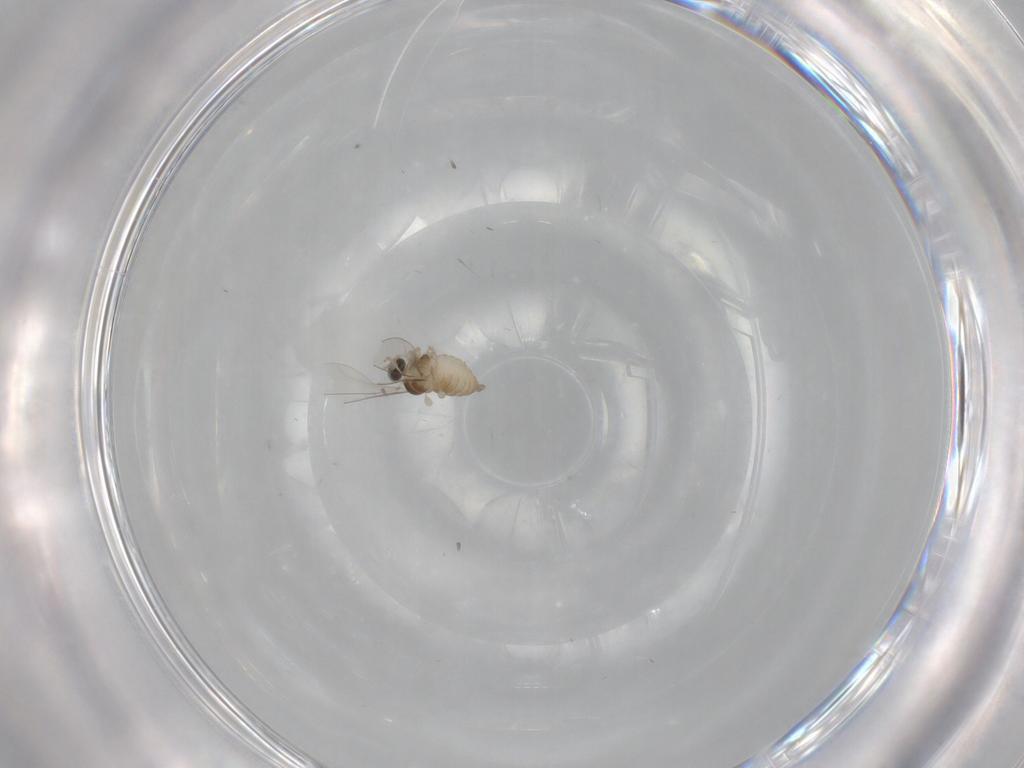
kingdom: Animalia
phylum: Arthropoda
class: Insecta
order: Diptera
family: Cecidomyiidae
